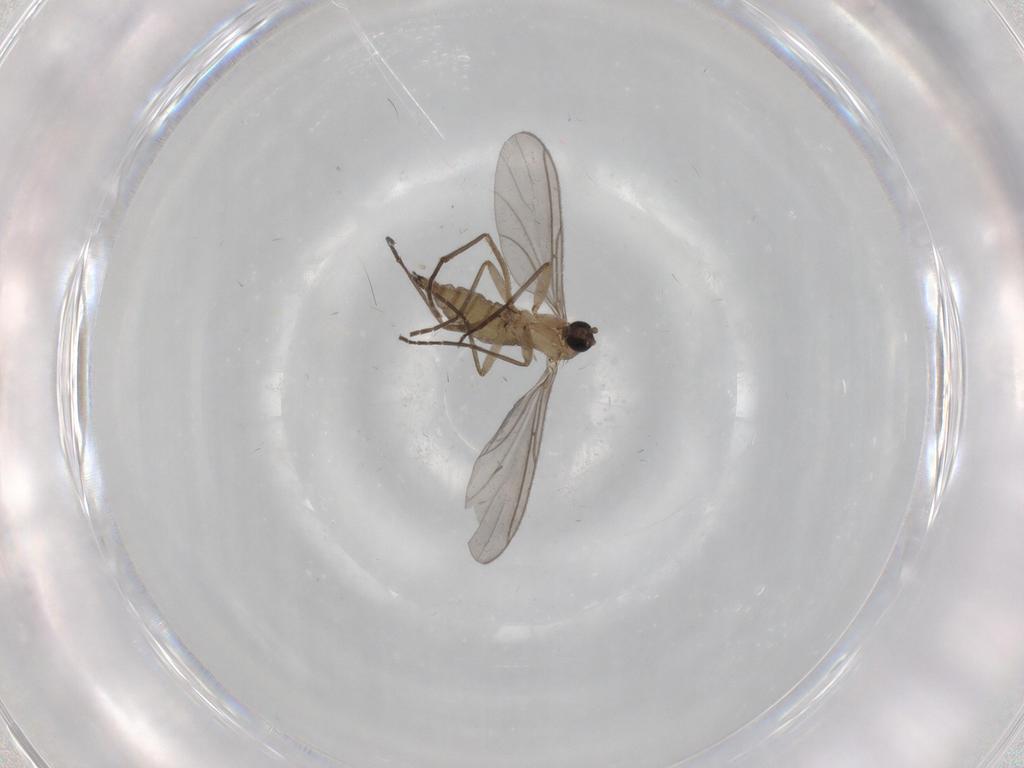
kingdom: Animalia
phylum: Arthropoda
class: Insecta
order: Diptera
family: Sciaridae
